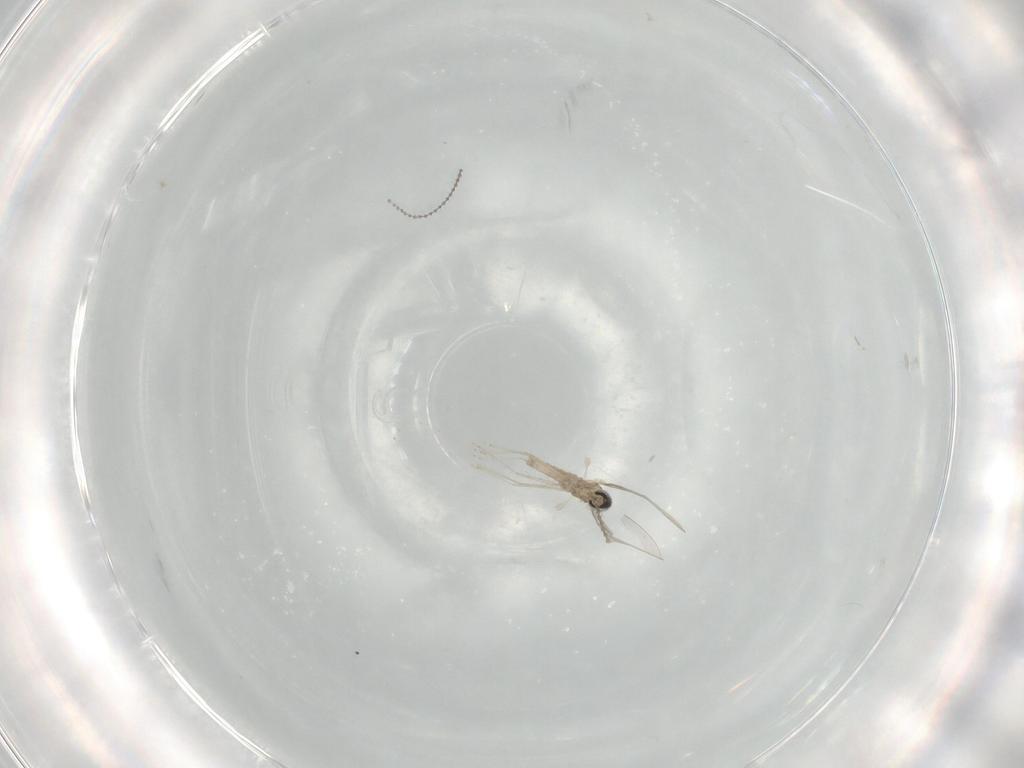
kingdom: Animalia
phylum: Arthropoda
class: Insecta
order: Diptera
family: Cecidomyiidae
